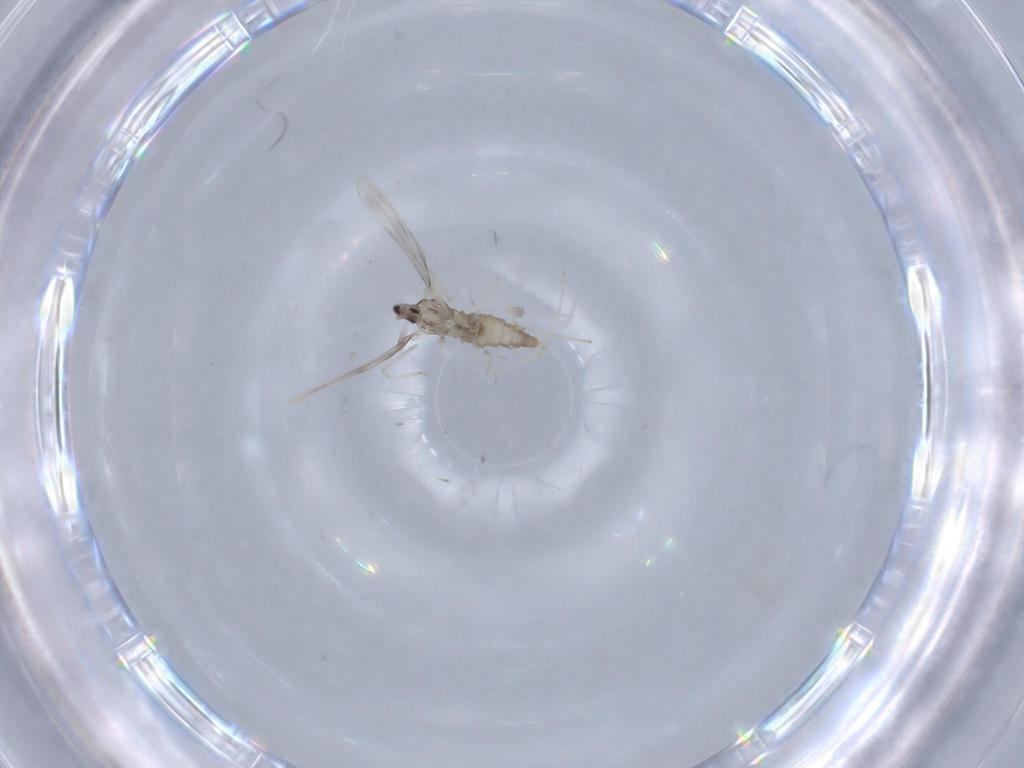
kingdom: Animalia
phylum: Arthropoda
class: Insecta
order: Diptera
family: Cecidomyiidae
